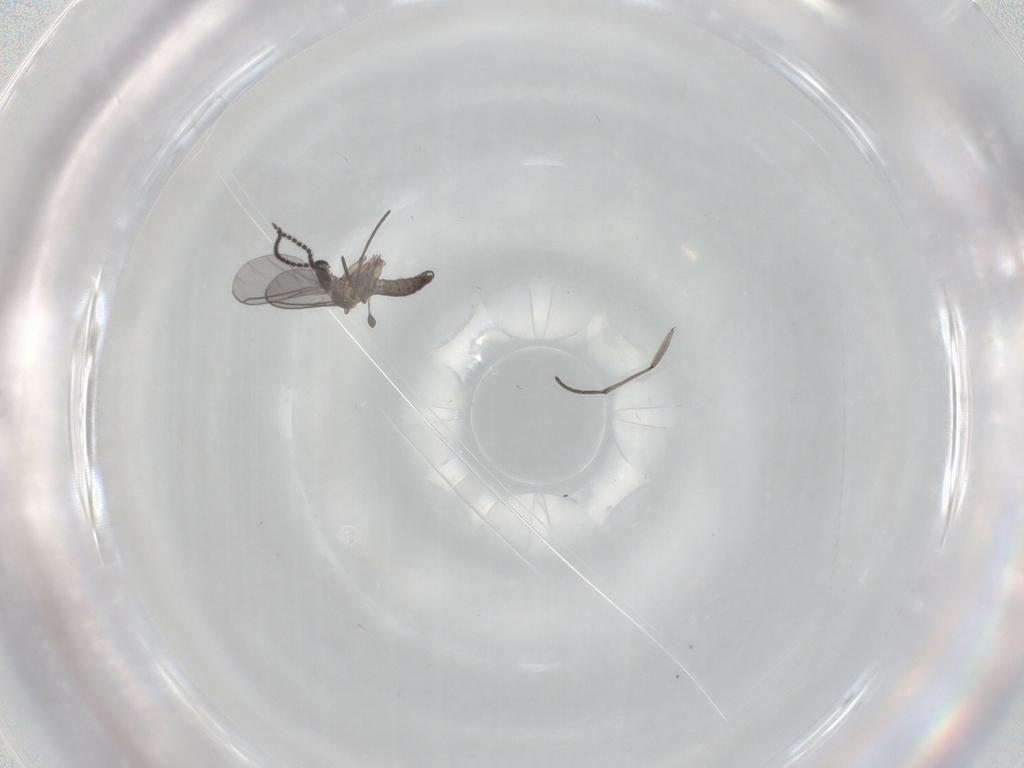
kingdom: Animalia
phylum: Arthropoda
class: Insecta
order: Diptera
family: Sciaridae
